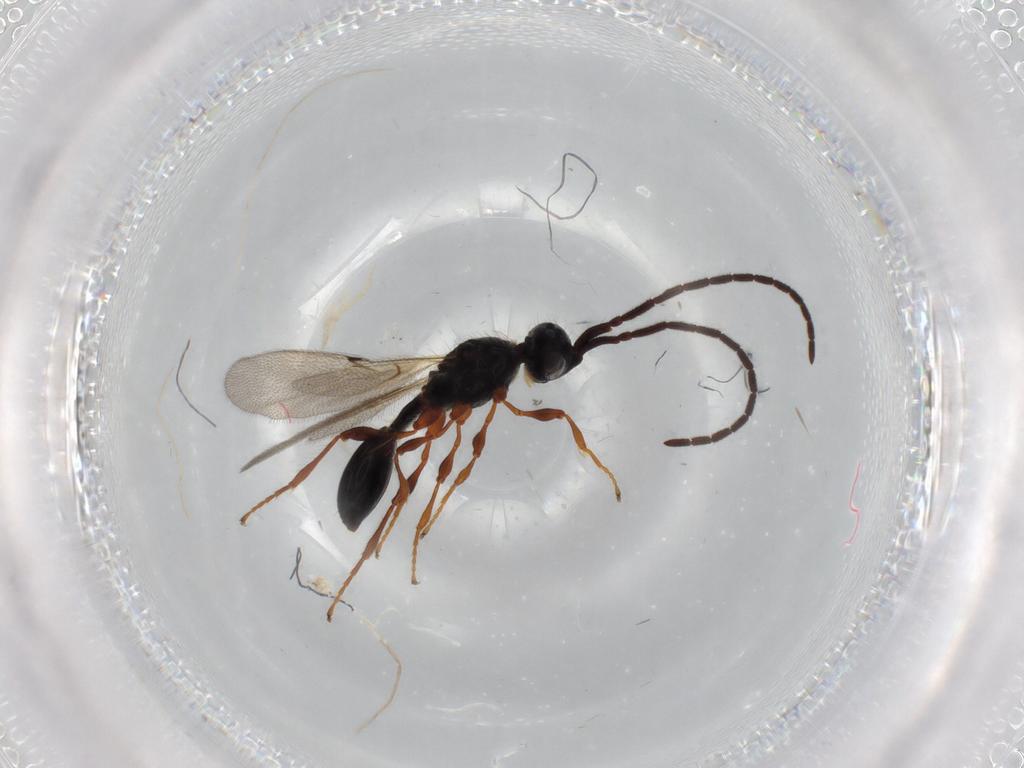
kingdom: Animalia
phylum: Arthropoda
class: Insecta
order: Hymenoptera
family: Diapriidae
